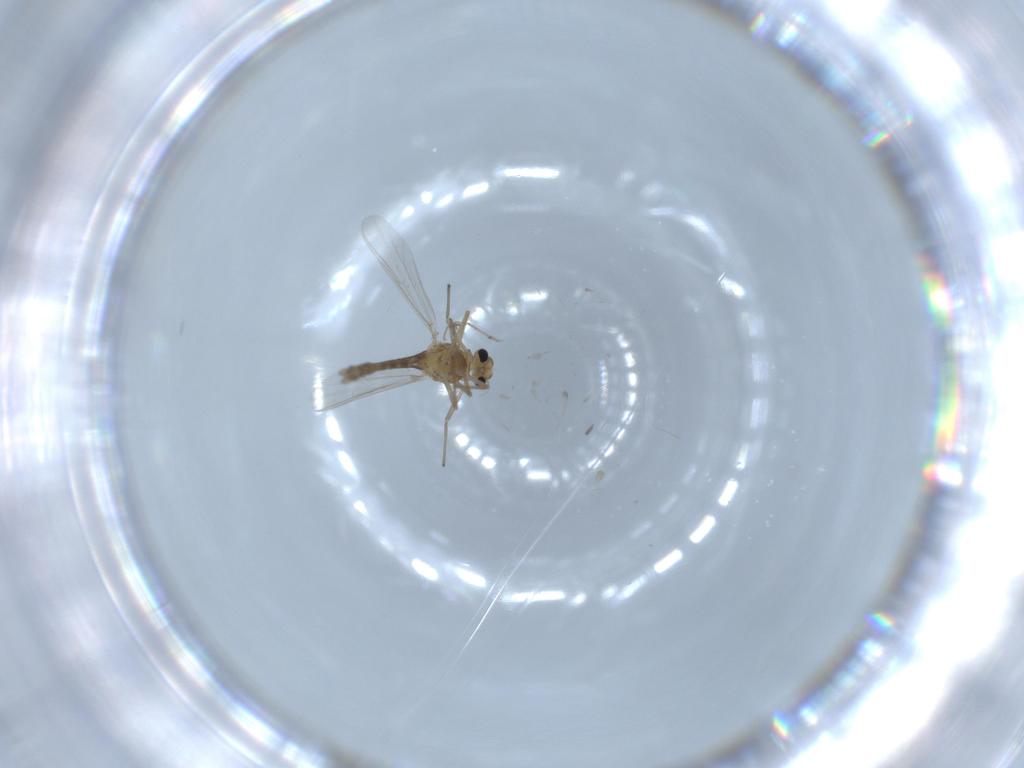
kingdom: Animalia
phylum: Arthropoda
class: Insecta
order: Diptera
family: Chironomidae
